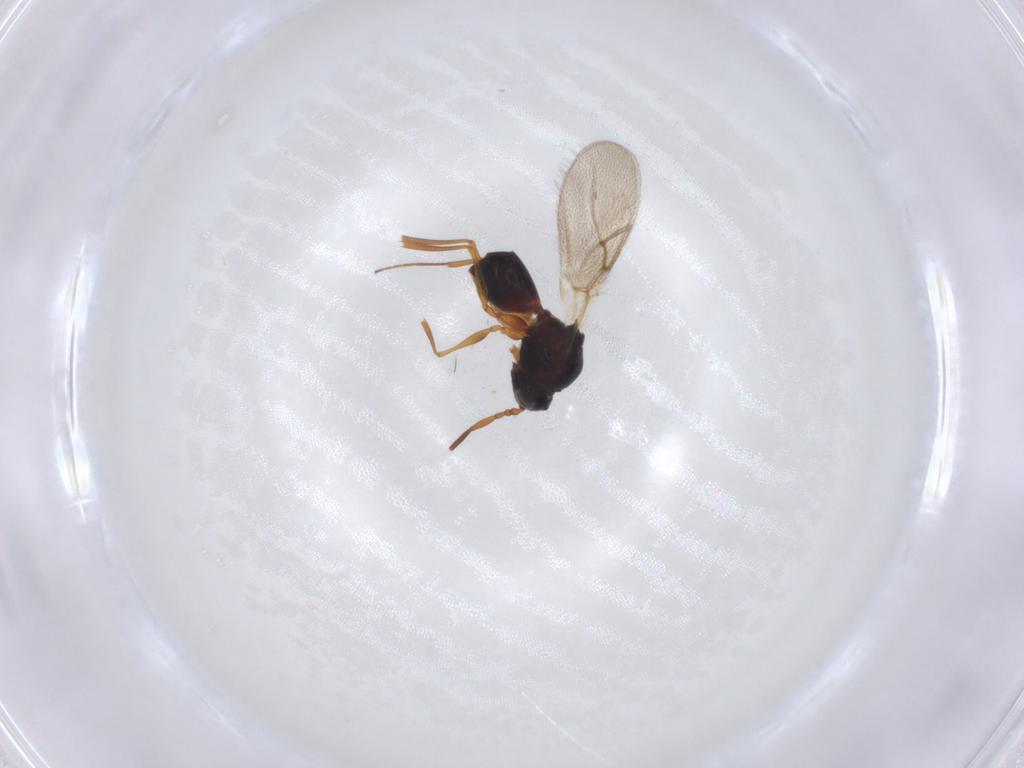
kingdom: Animalia
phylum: Arthropoda
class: Insecta
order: Hymenoptera
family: Figitidae
